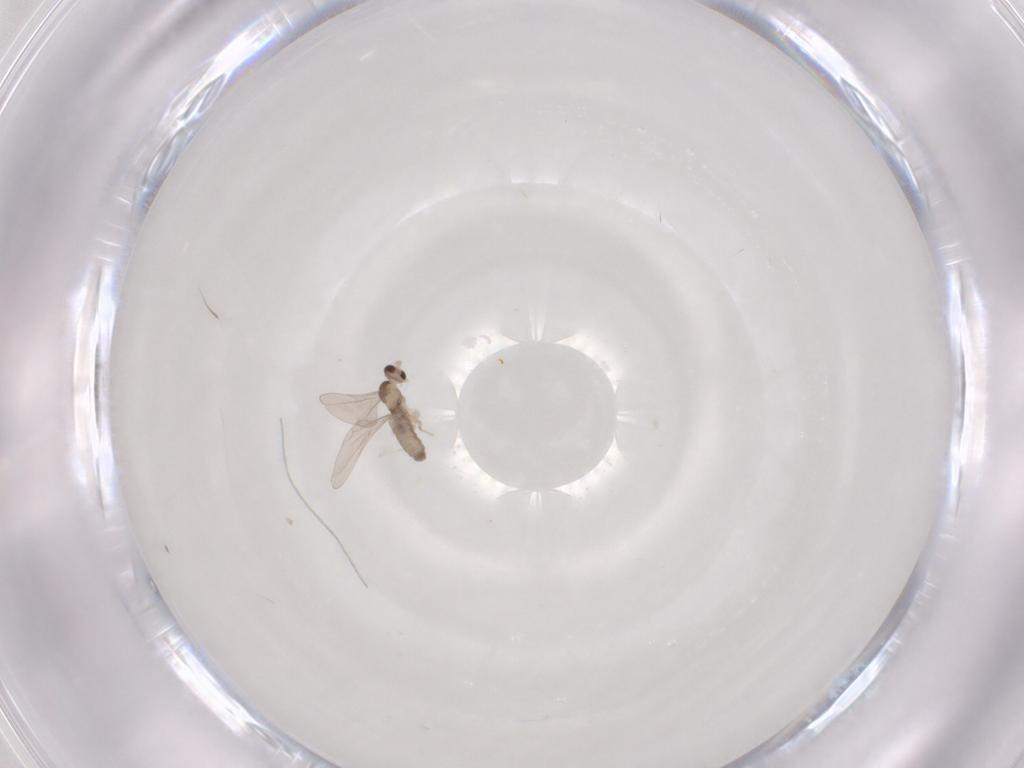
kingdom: Animalia
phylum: Arthropoda
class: Insecta
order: Diptera
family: Cecidomyiidae
